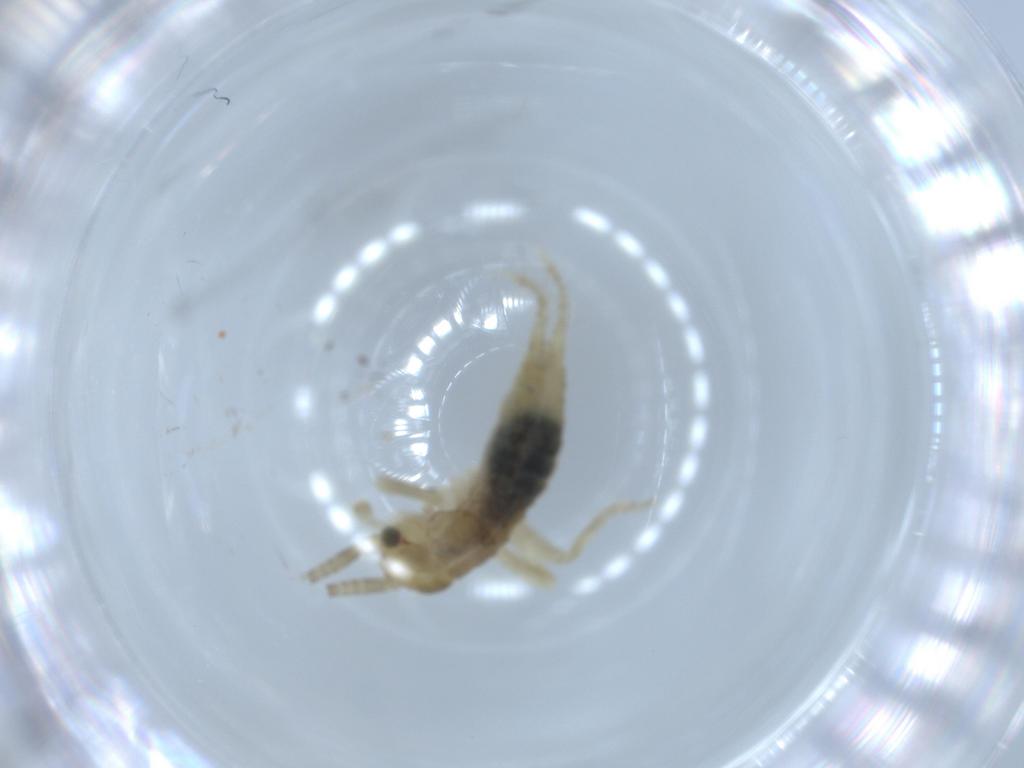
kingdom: Animalia
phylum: Arthropoda
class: Insecta
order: Orthoptera
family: Gryllidae
